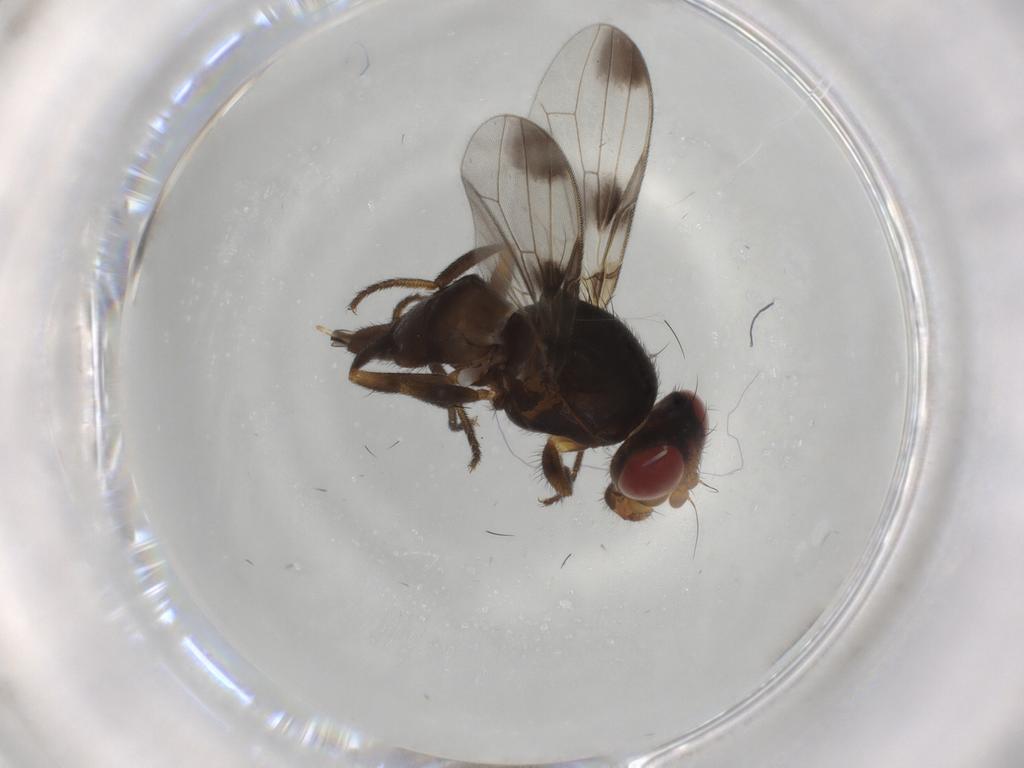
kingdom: Animalia
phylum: Arthropoda
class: Insecta
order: Diptera
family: Ulidiidae
